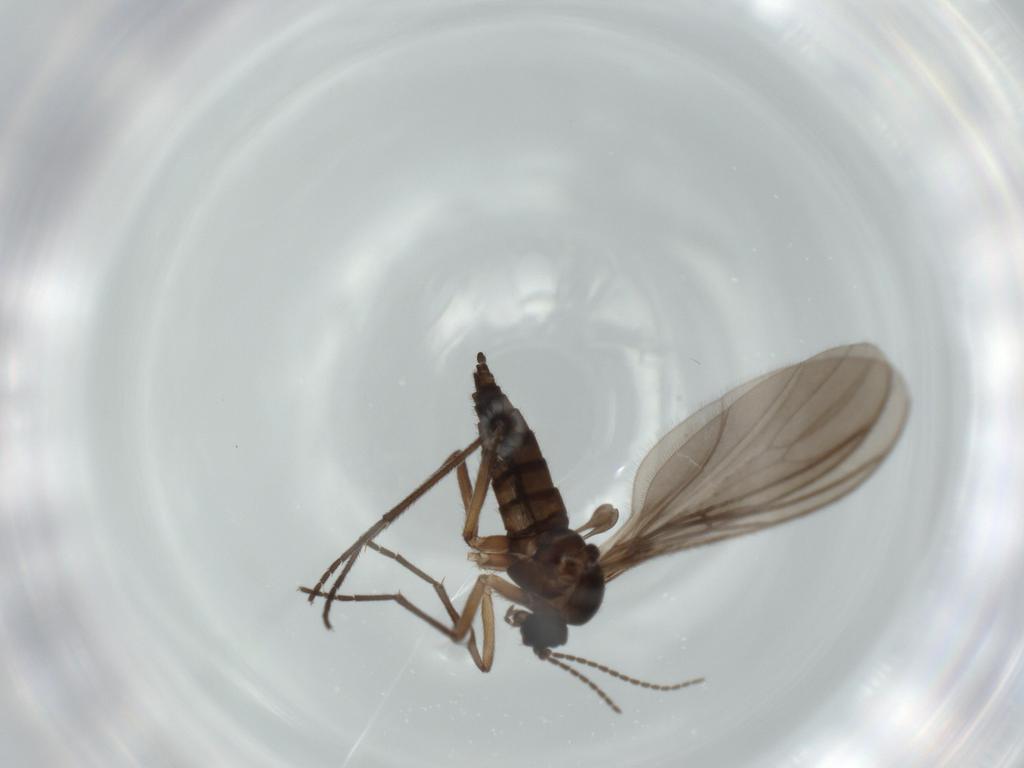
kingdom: Animalia
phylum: Arthropoda
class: Insecta
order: Diptera
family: Sciaridae
